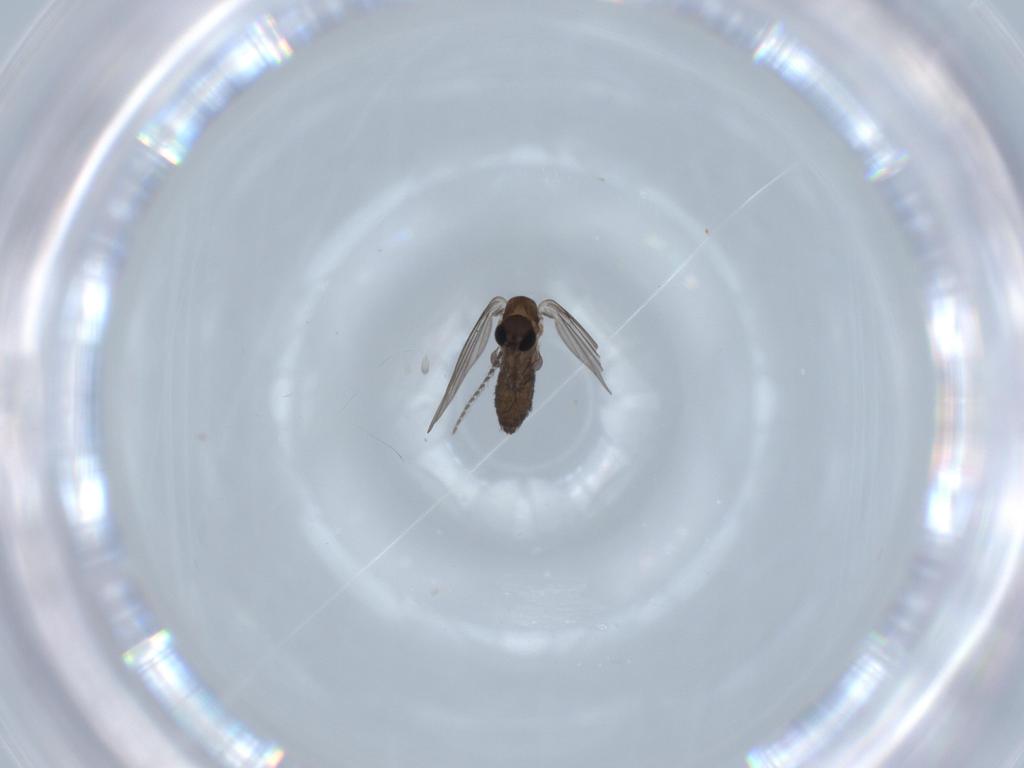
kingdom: Animalia
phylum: Arthropoda
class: Insecta
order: Diptera
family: Psychodidae
